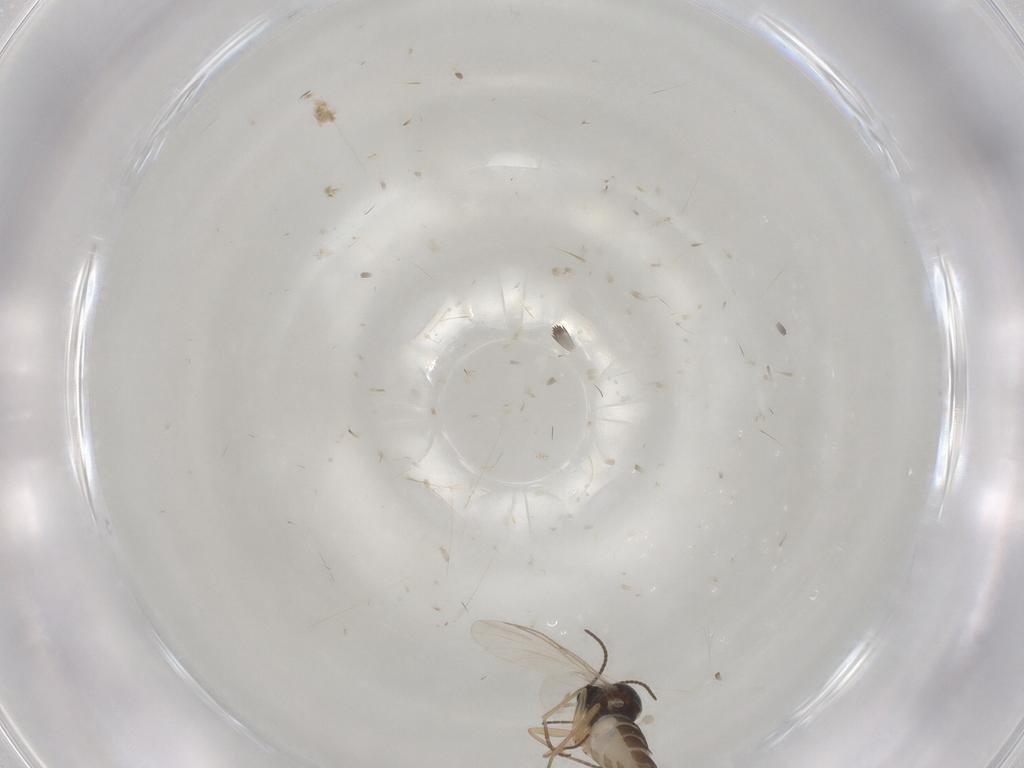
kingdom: Animalia
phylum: Arthropoda
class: Insecta
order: Diptera
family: Sciaridae
